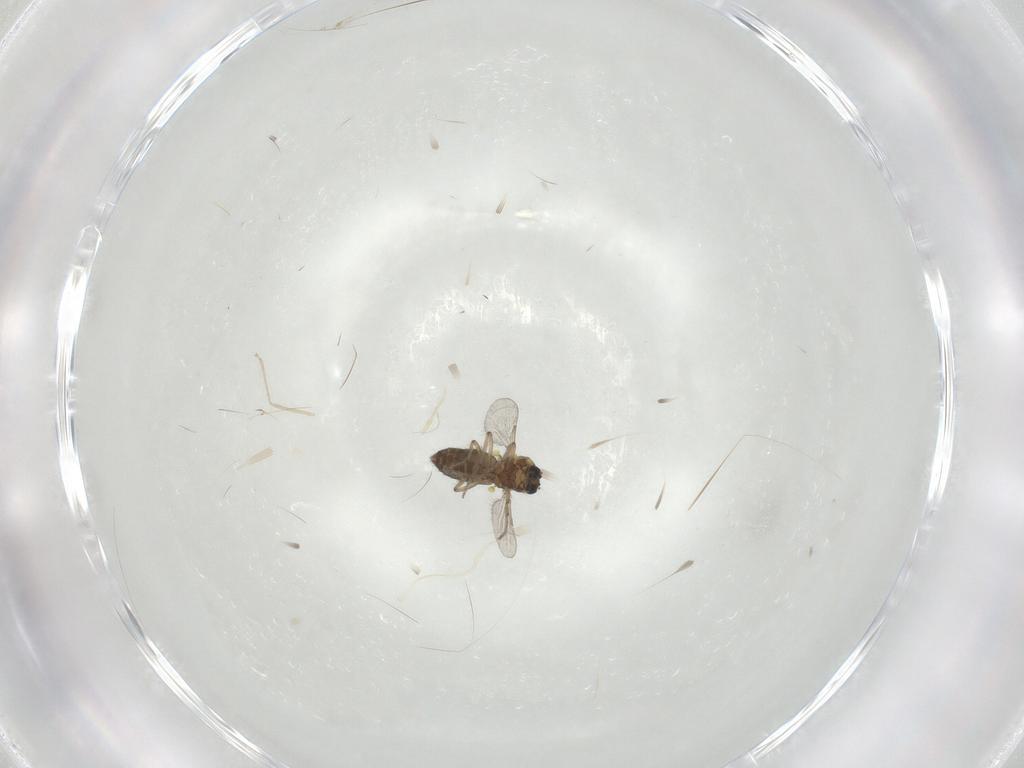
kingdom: Animalia
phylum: Arthropoda
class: Insecta
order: Diptera
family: Ceratopogonidae
